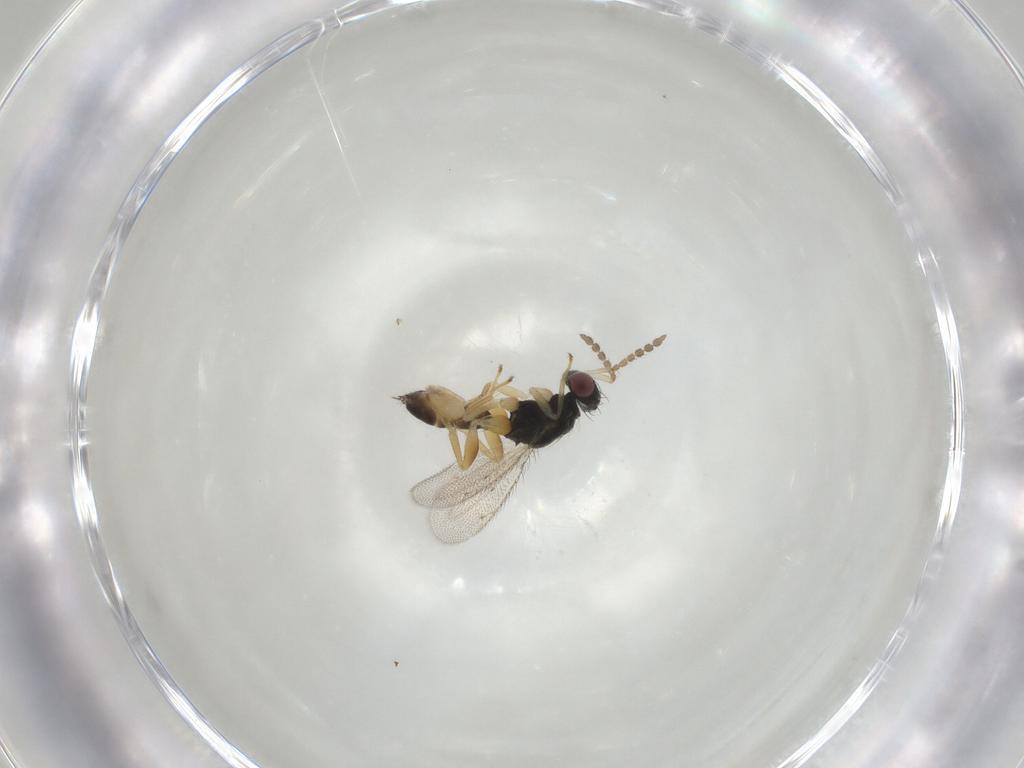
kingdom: Animalia
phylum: Arthropoda
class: Insecta
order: Hymenoptera
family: Eulophidae
